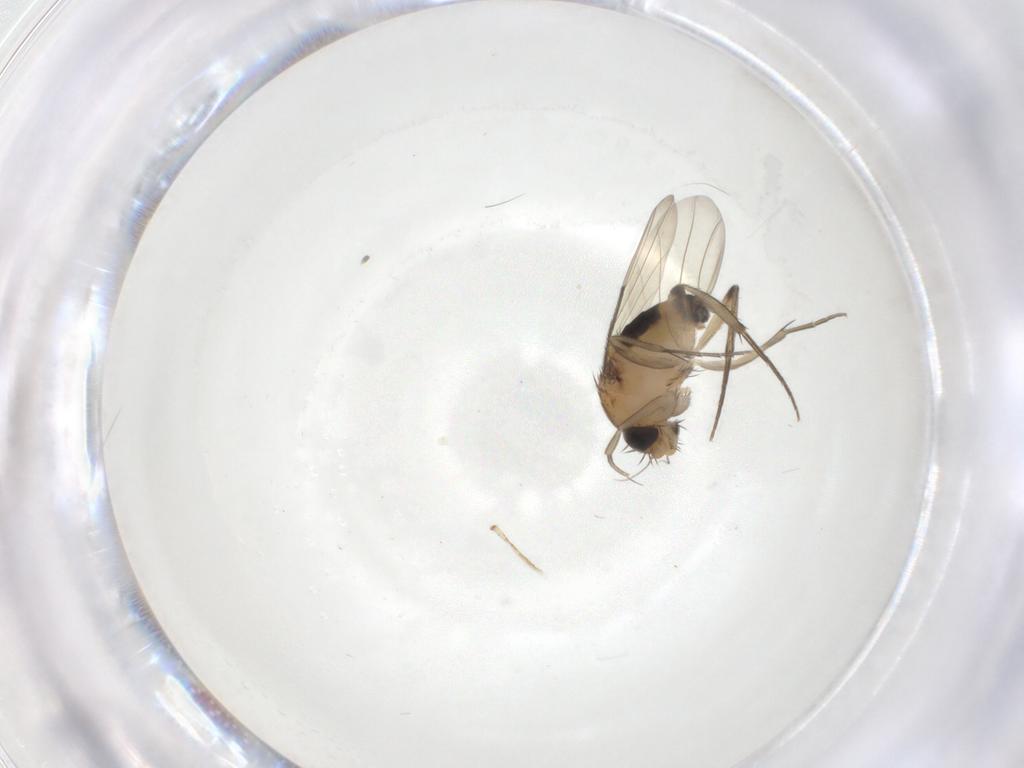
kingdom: Animalia
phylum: Arthropoda
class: Insecta
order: Diptera
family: Phoridae
